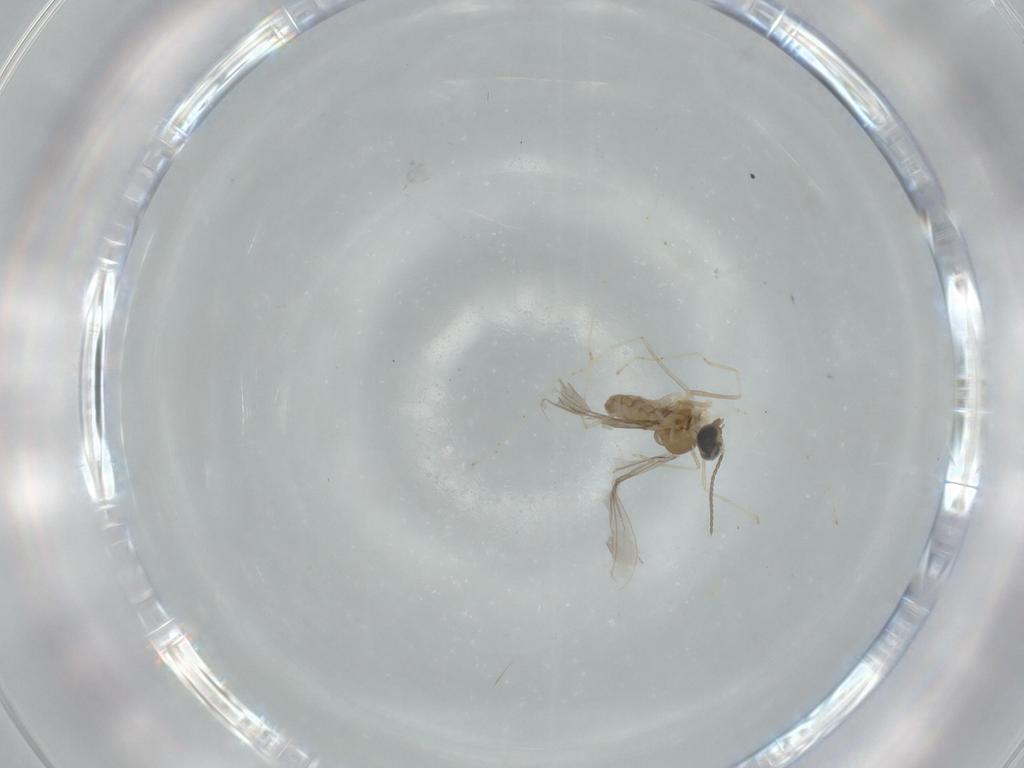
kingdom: Animalia
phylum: Arthropoda
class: Insecta
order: Diptera
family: Cecidomyiidae
